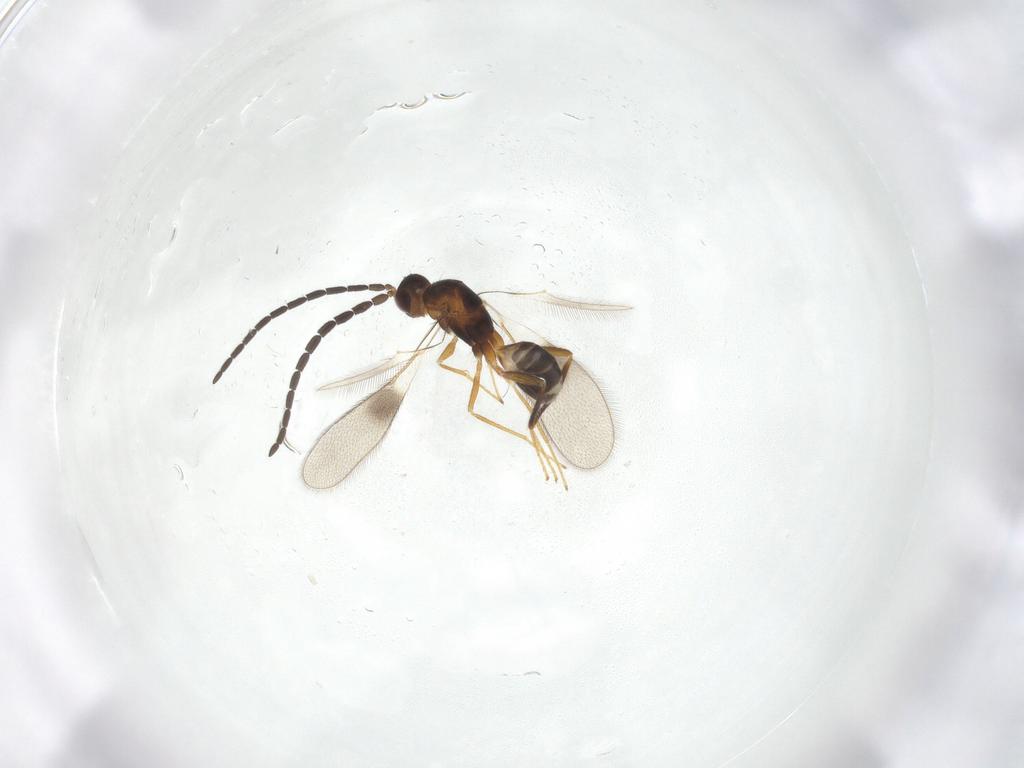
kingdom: Animalia
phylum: Arthropoda
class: Insecta
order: Hymenoptera
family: Mymaridae
